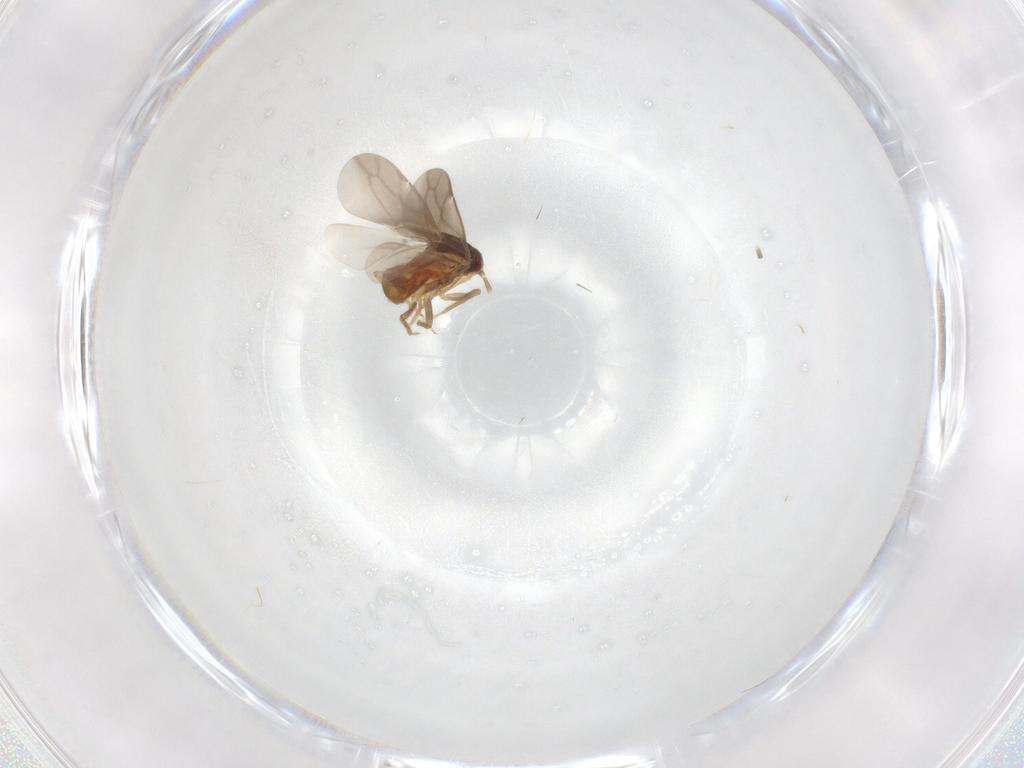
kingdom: Animalia
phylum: Arthropoda
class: Insecta
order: Hemiptera
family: Ceratocombidae
